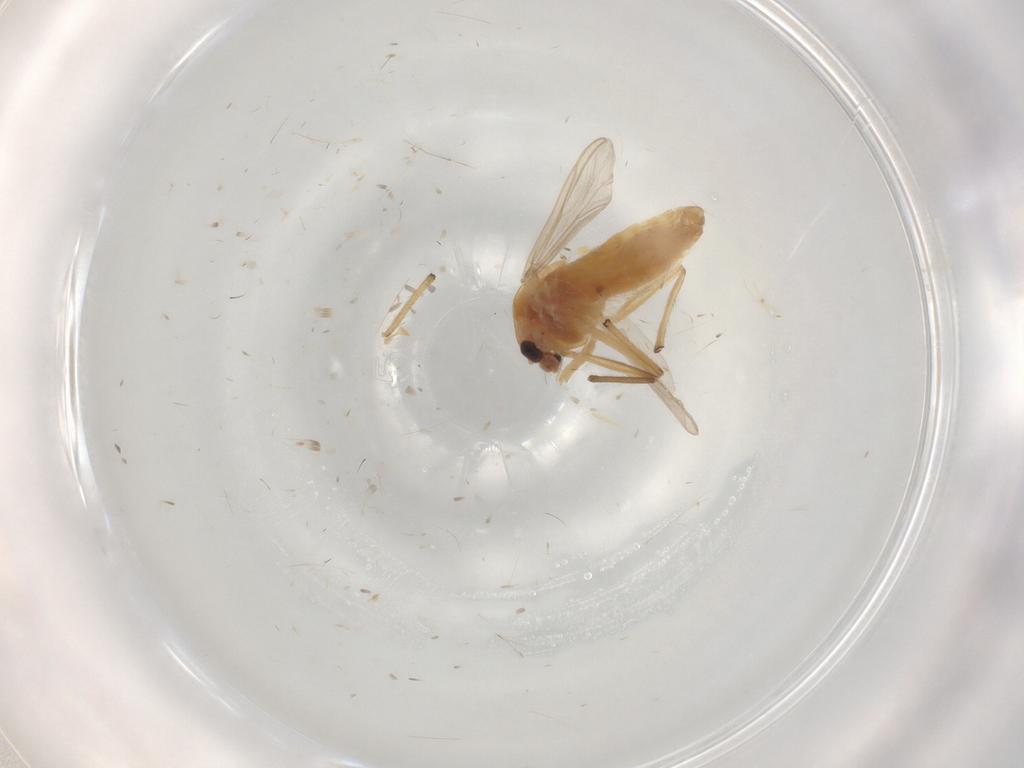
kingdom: Animalia
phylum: Arthropoda
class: Insecta
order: Diptera
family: Chironomidae
